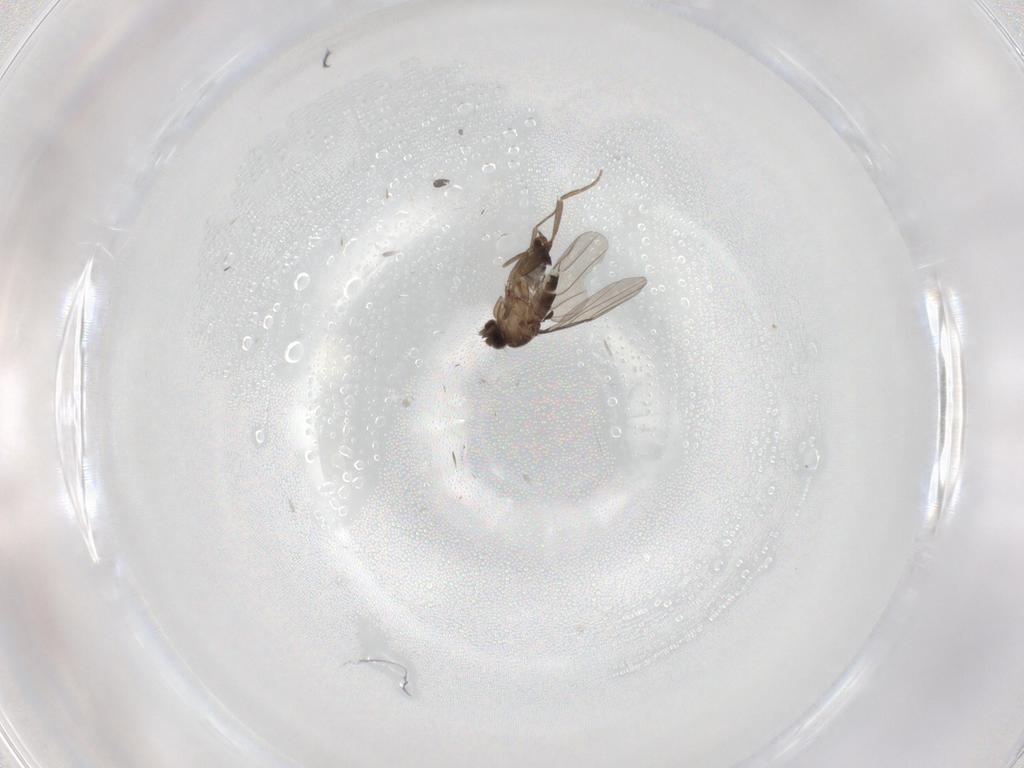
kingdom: Animalia
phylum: Arthropoda
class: Insecta
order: Diptera
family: Phoridae
